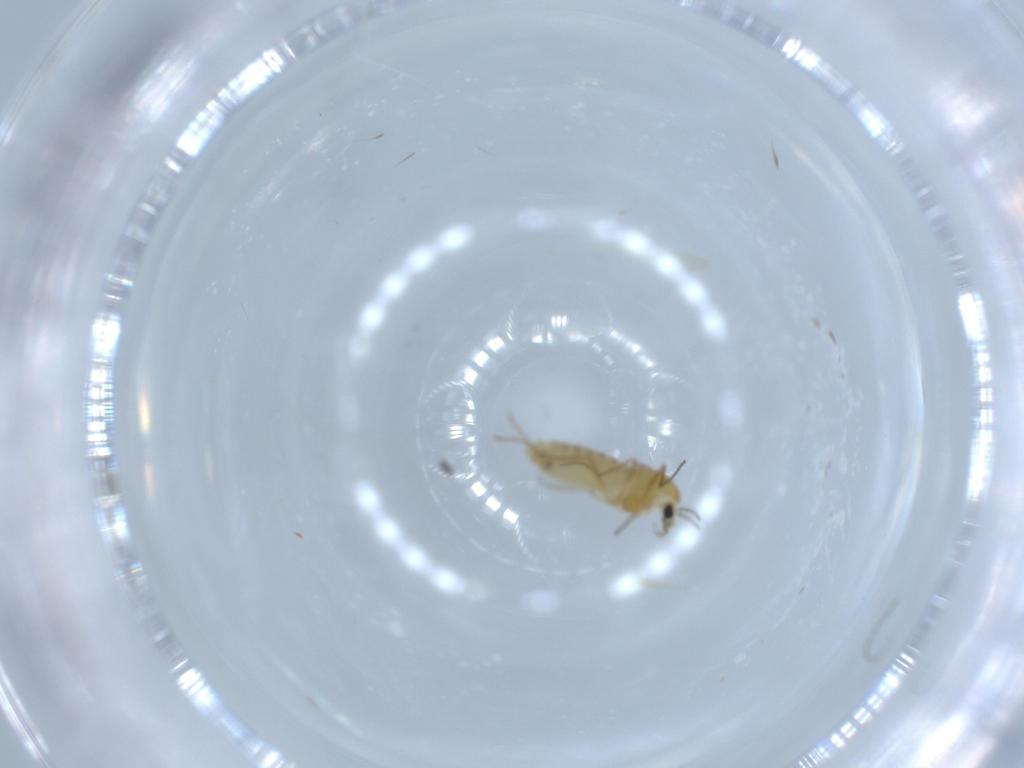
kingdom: Animalia
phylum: Arthropoda
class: Insecta
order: Diptera
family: Chironomidae
